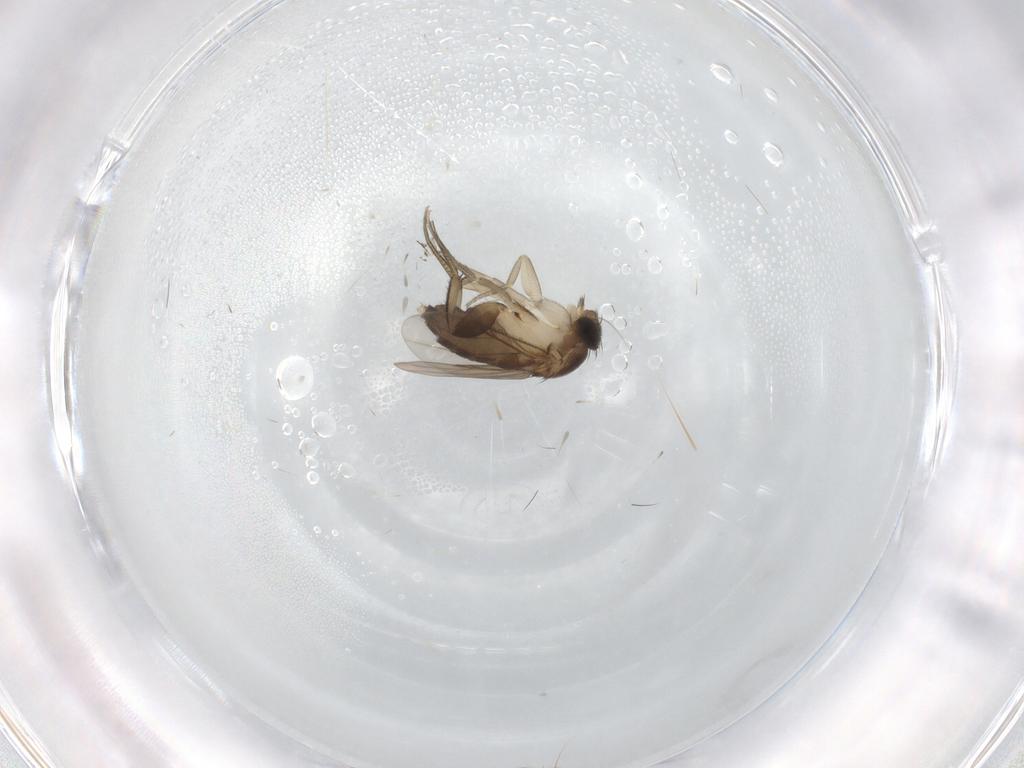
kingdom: Animalia
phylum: Arthropoda
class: Insecta
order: Diptera
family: Phoridae
